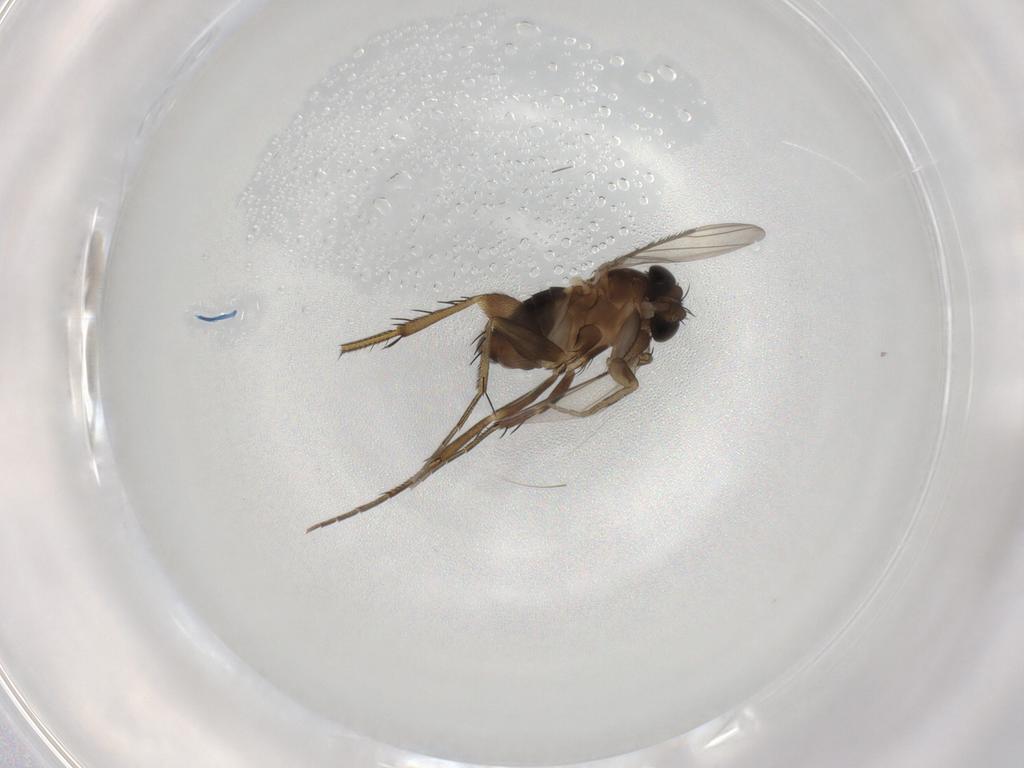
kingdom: Animalia
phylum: Arthropoda
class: Insecta
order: Diptera
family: Phoridae
